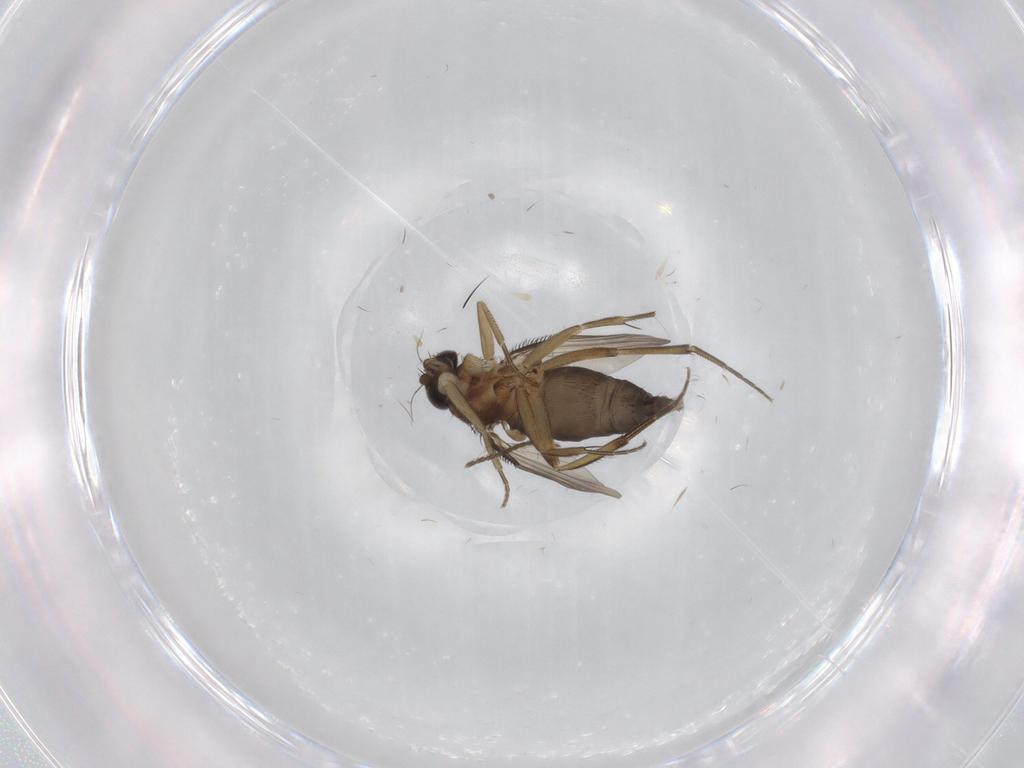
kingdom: Animalia
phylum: Arthropoda
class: Insecta
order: Diptera
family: Phoridae
